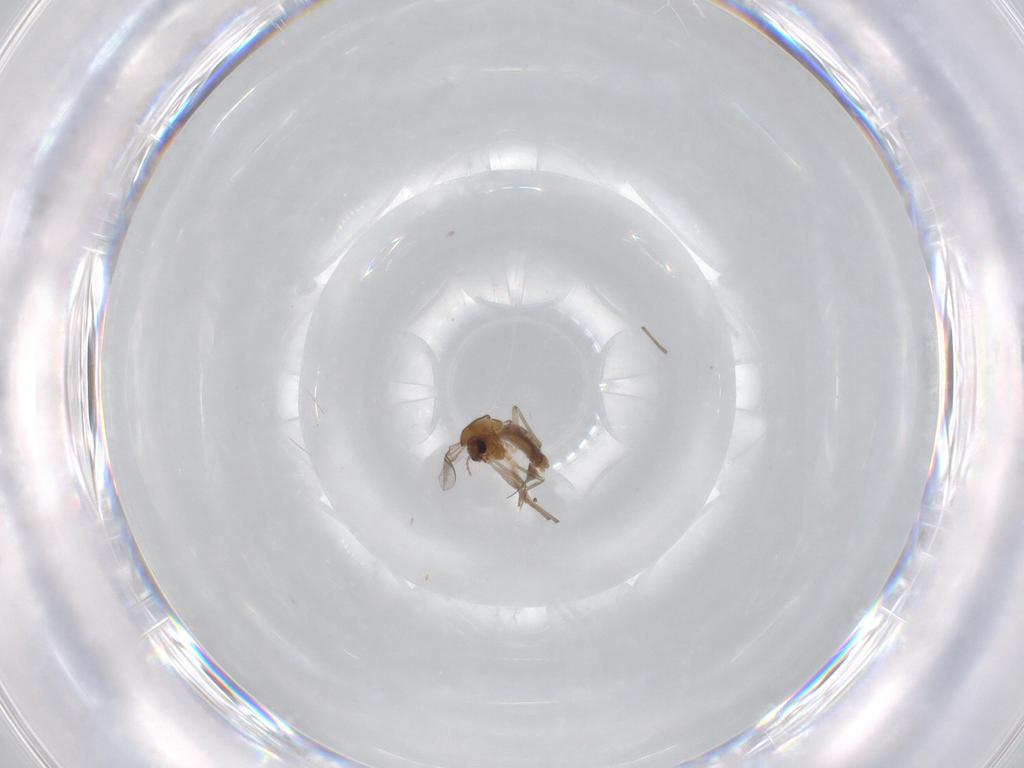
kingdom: Animalia
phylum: Arthropoda
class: Insecta
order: Diptera
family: Chironomidae
